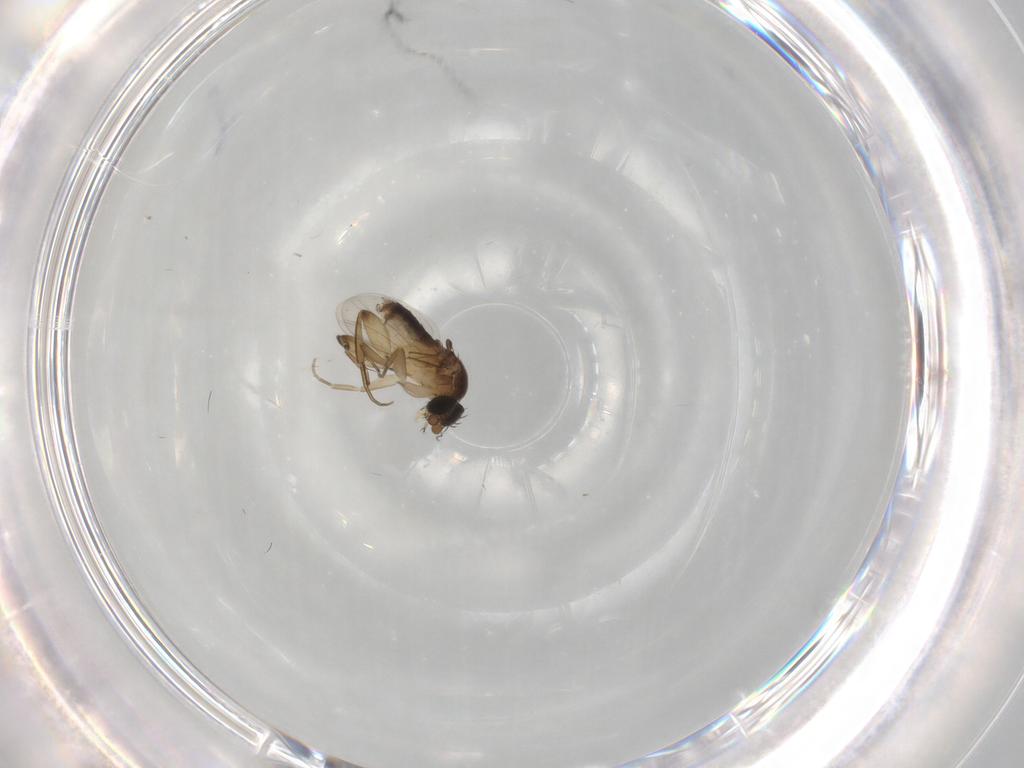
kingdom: Animalia
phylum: Arthropoda
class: Insecta
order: Diptera
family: Phoridae
